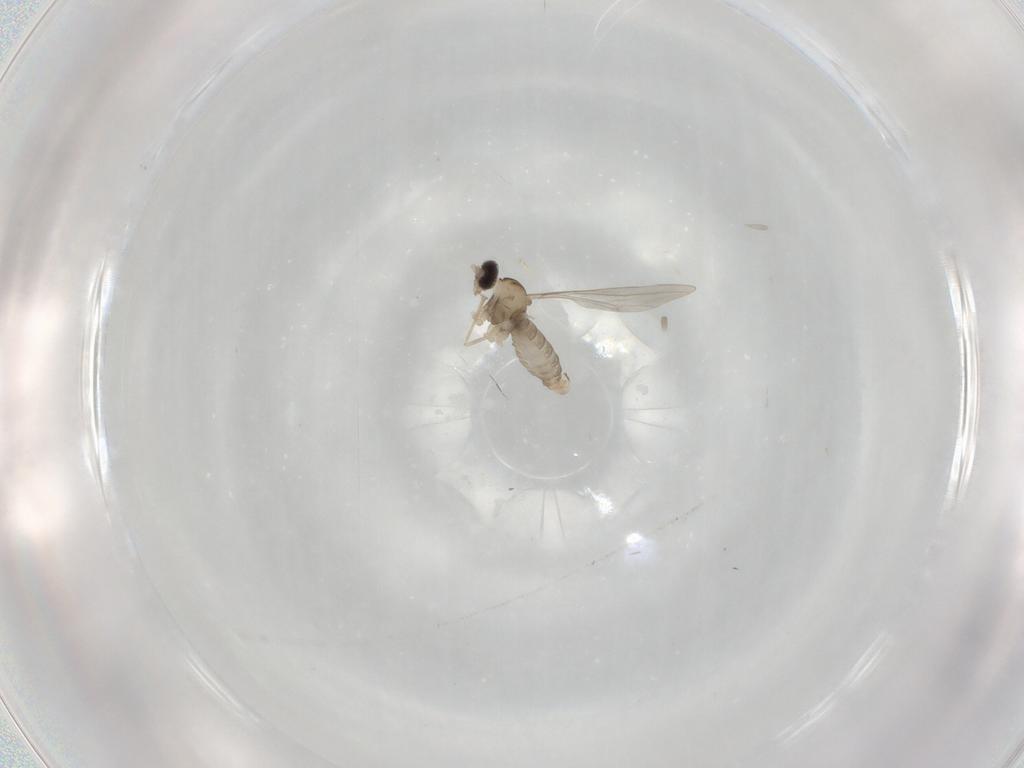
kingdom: Animalia
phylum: Arthropoda
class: Insecta
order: Diptera
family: Cecidomyiidae
